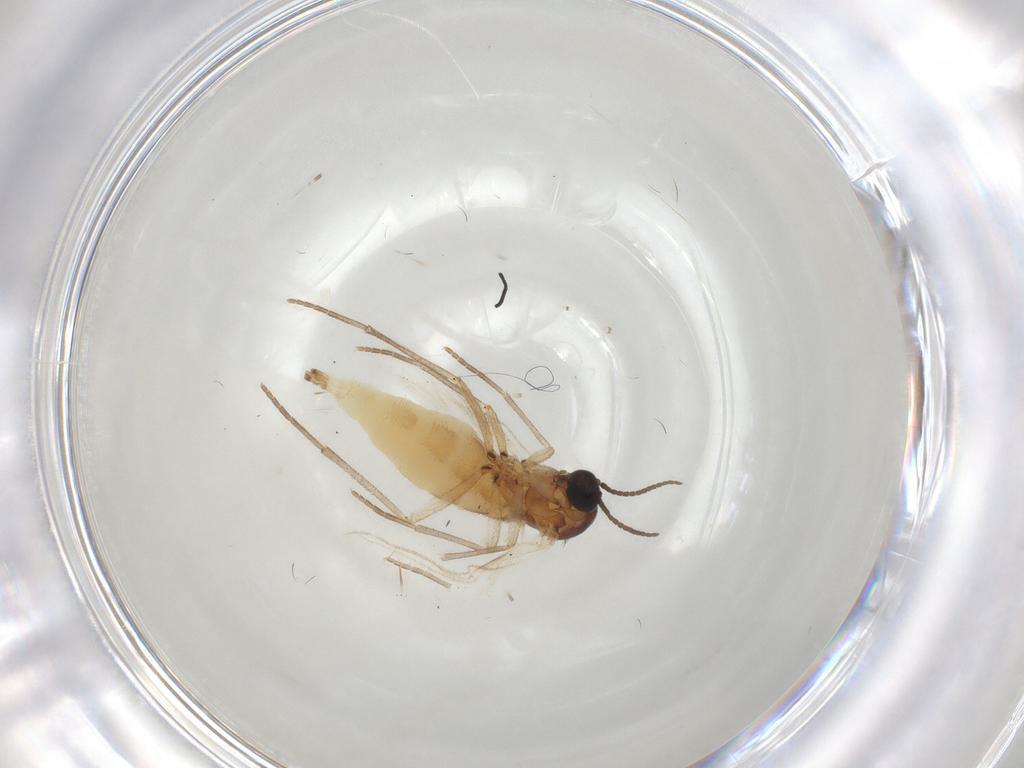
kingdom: Animalia
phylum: Arthropoda
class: Insecta
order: Diptera
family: Sciaridae
